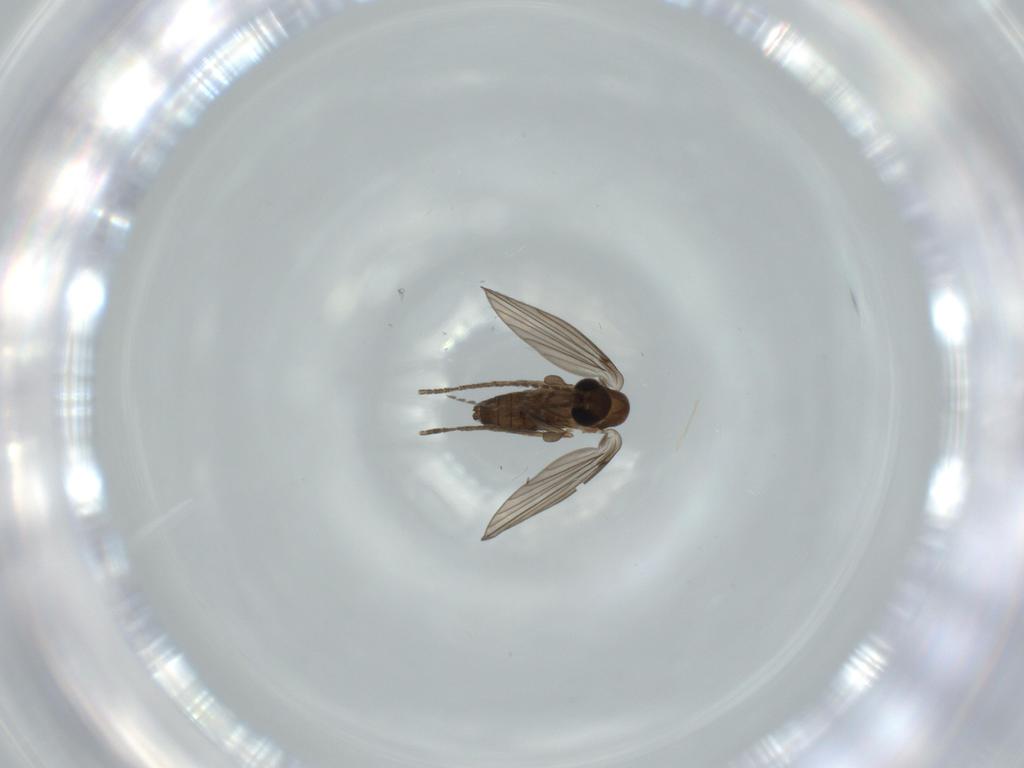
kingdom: Animalia
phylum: Arthropoda
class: Insecta
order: Diptera
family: Psychodidae
